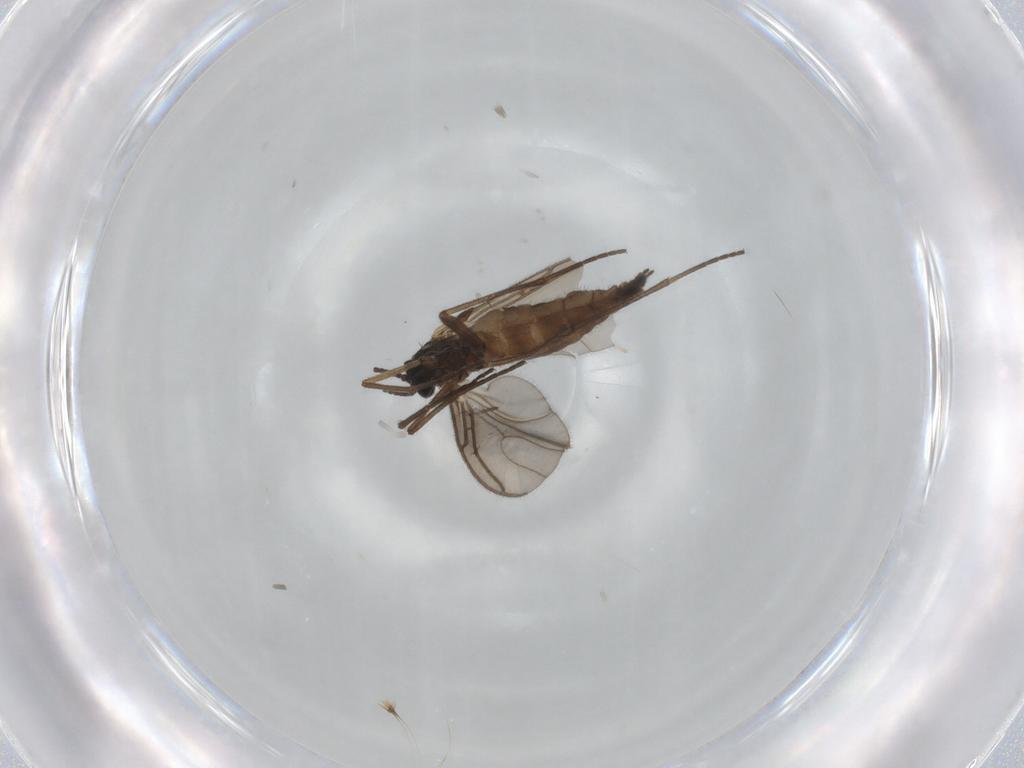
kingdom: Animalia
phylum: Arthropoda
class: Insecta
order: Diptera
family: Sciaridae
